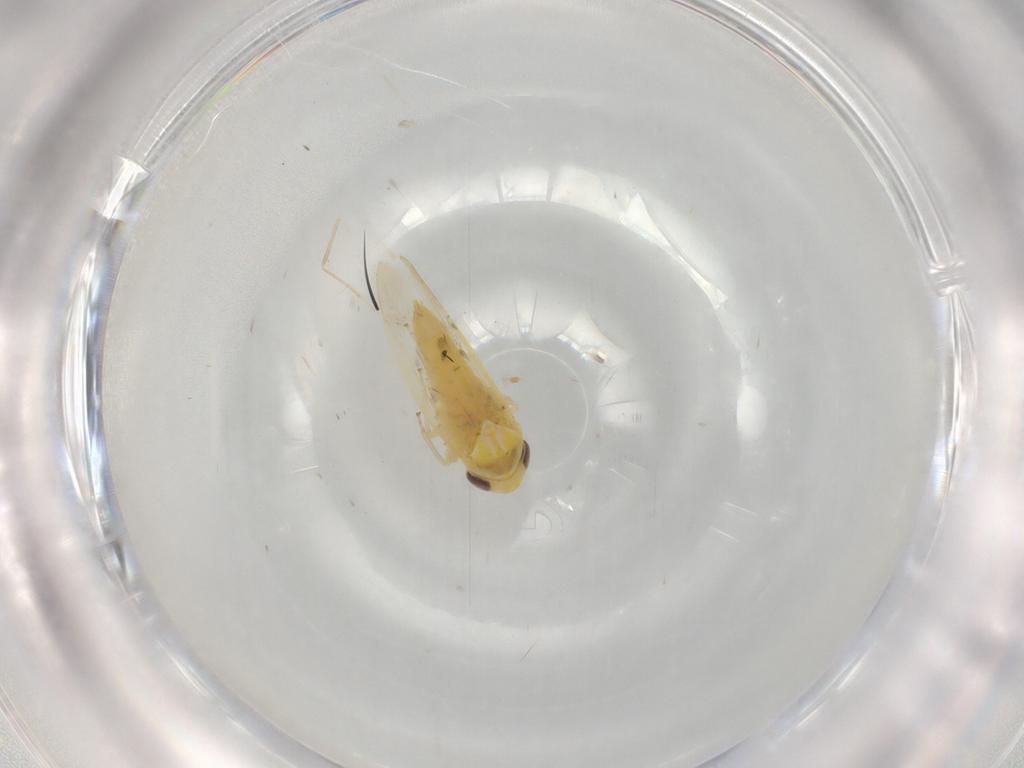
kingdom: Animalia
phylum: Arthropoda
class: Insecta
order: Hemiptera
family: Cicadellidae
